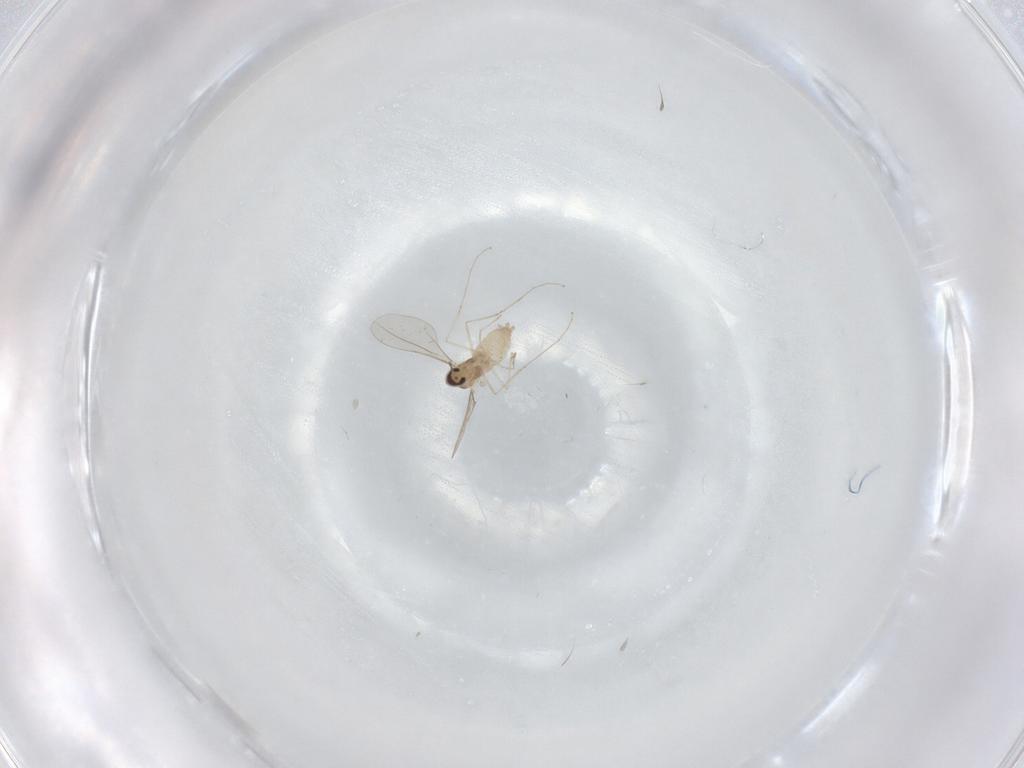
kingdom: Animalia
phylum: Arthropoda
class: Insecta
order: Diptera
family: Cecidomyiidae
